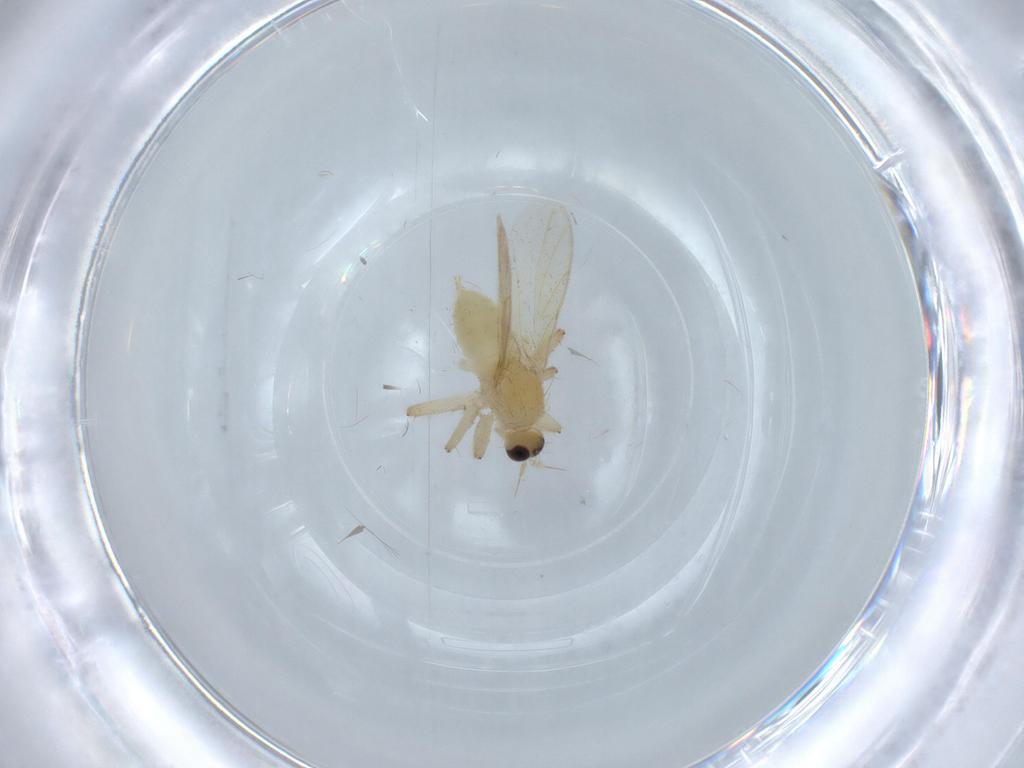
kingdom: Animalia
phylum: Arthropoda
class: Insecta
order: Diptera
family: Hybotidae
